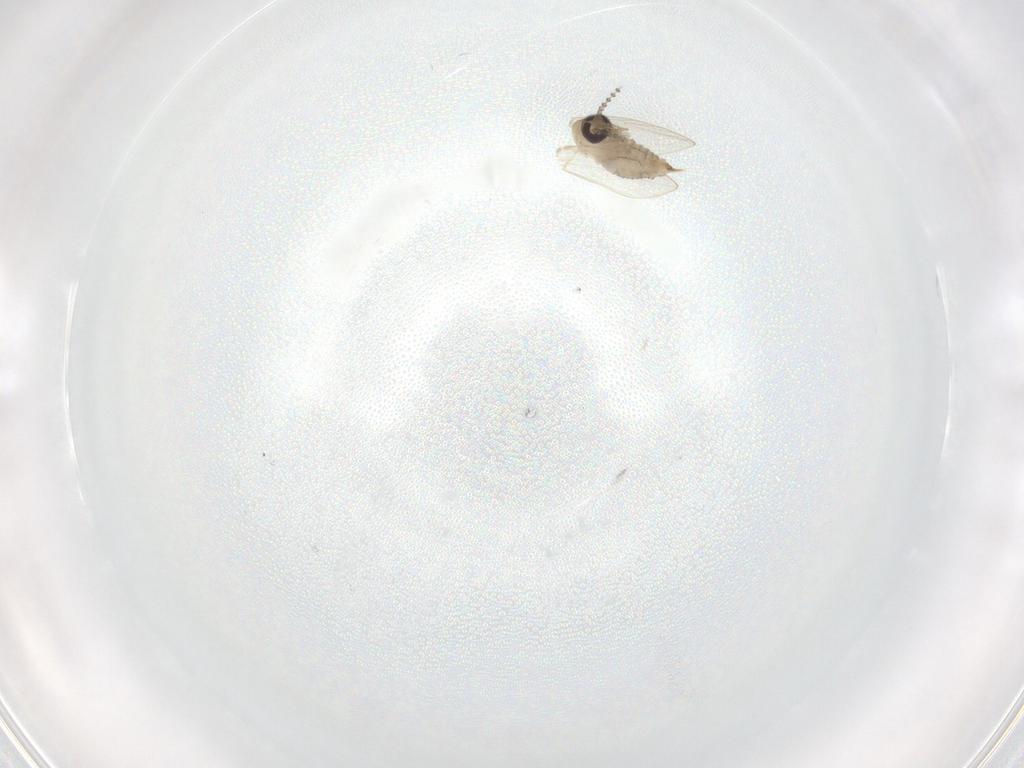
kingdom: Animalia
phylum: Arthropoda
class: Insecta
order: Diptera
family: Psychodidae
